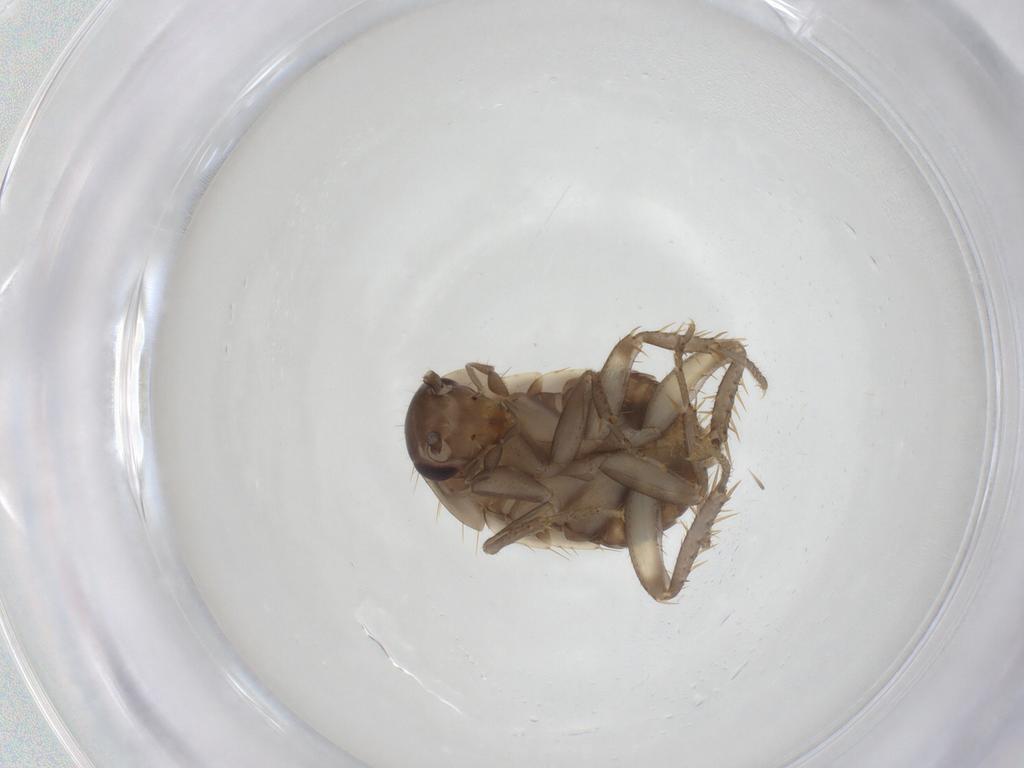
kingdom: Animalia
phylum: Arthropoda
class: Insecta
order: Blattodea
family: Ectobiidae
